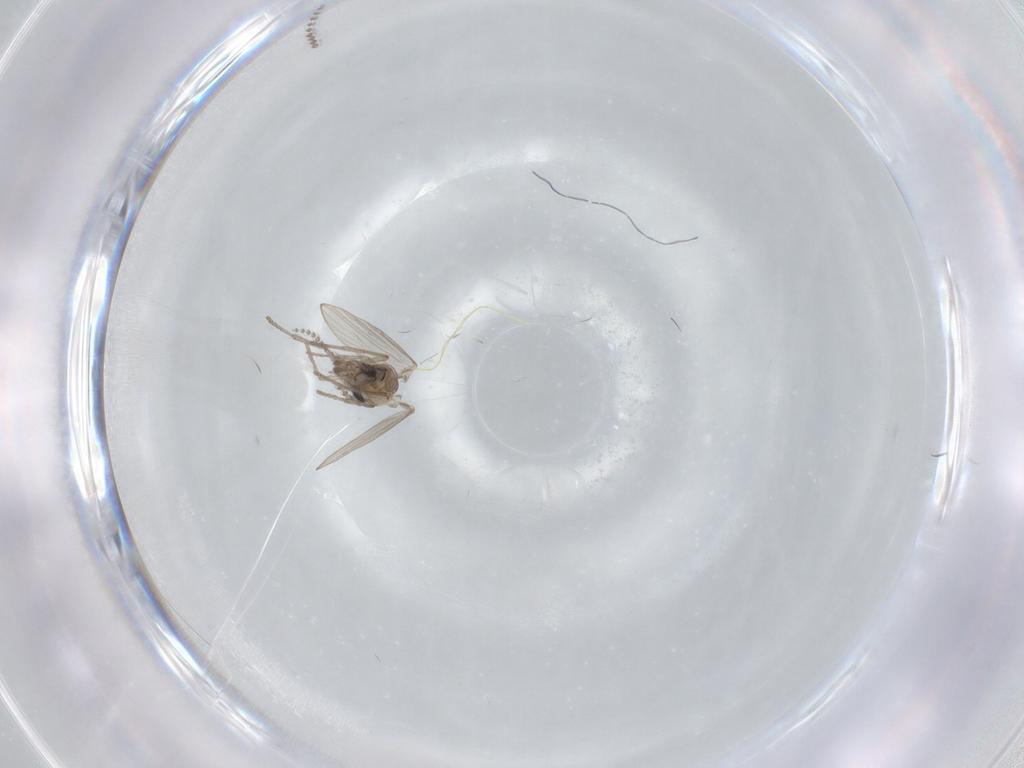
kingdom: Animalia
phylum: Arthropoda
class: Insecta
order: Diptera
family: Psychodidae
